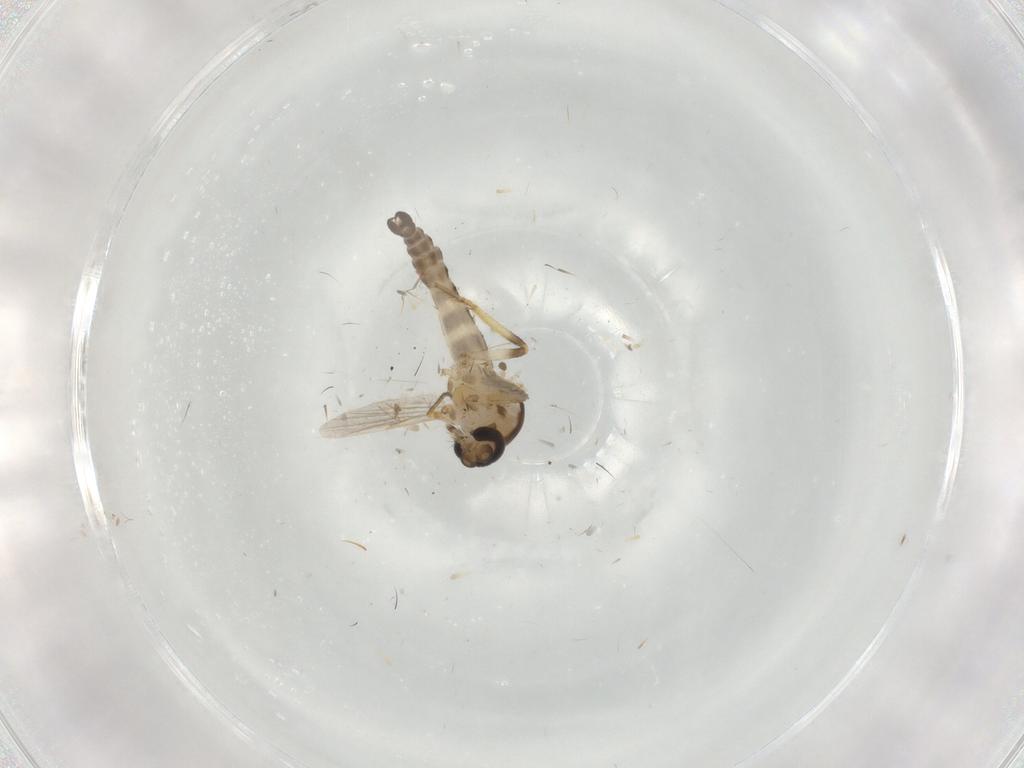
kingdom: Animalia
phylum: Arthropoda
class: Insecta
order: Diptera
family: Ceratopogonidae
